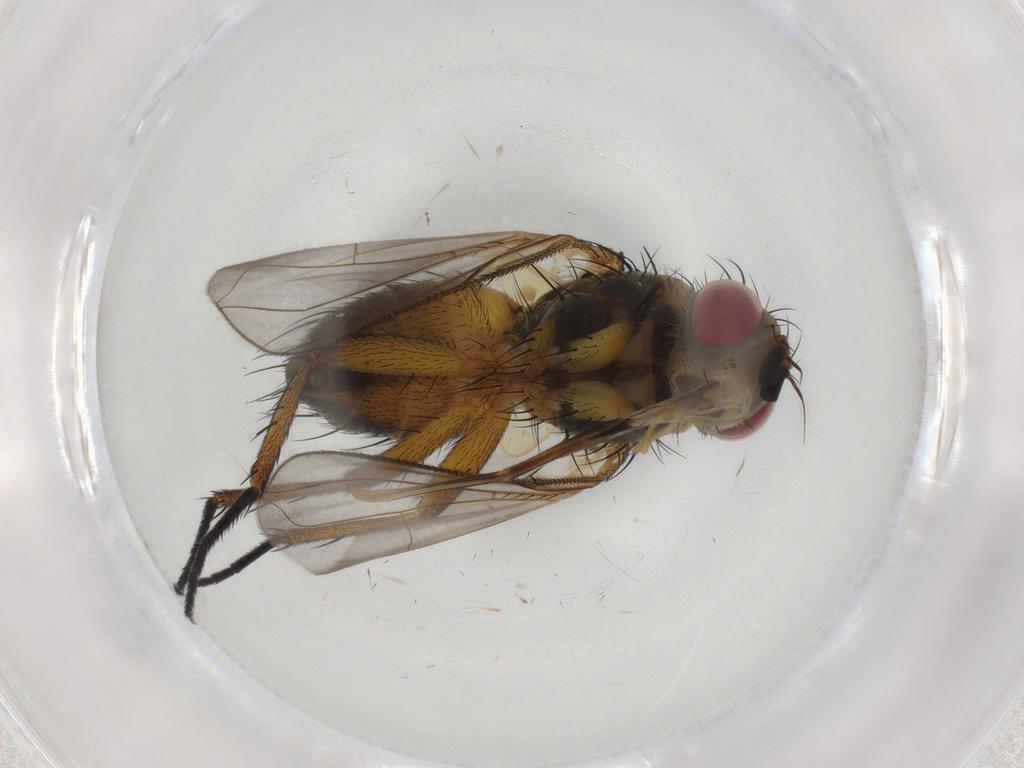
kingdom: Animalia
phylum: Arthropoda
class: Insecta
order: Diptera
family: Tachinidae
